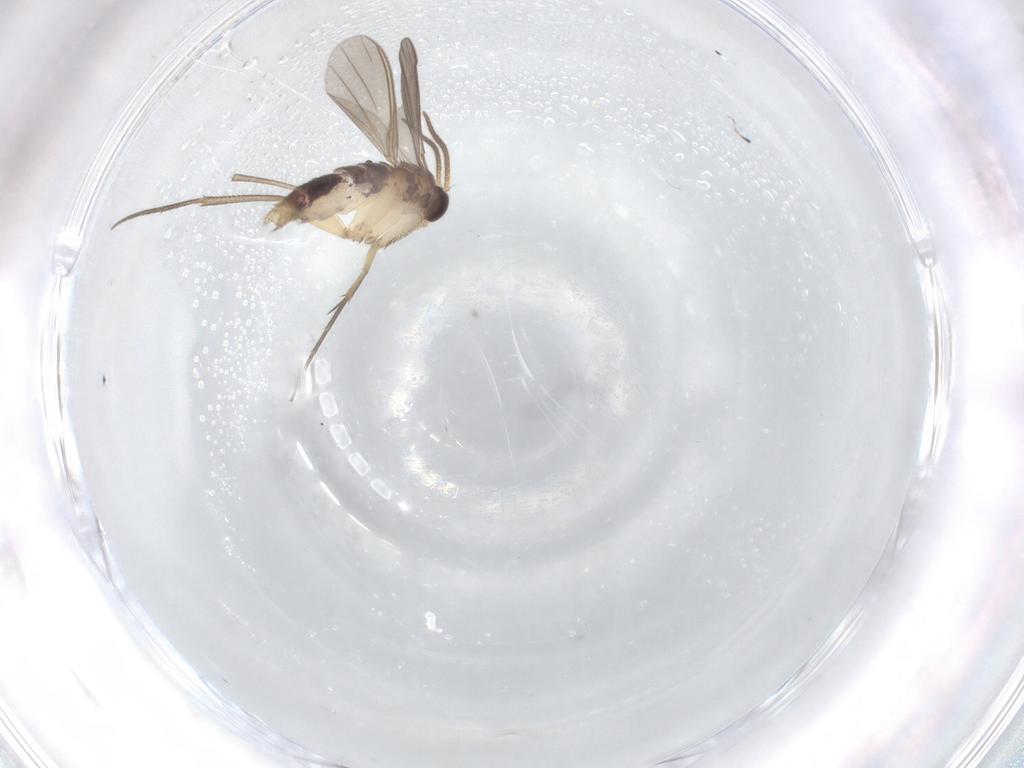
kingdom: Animalia
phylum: Arthropoda
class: Insecta
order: Diptera
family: Mycetophilidae
